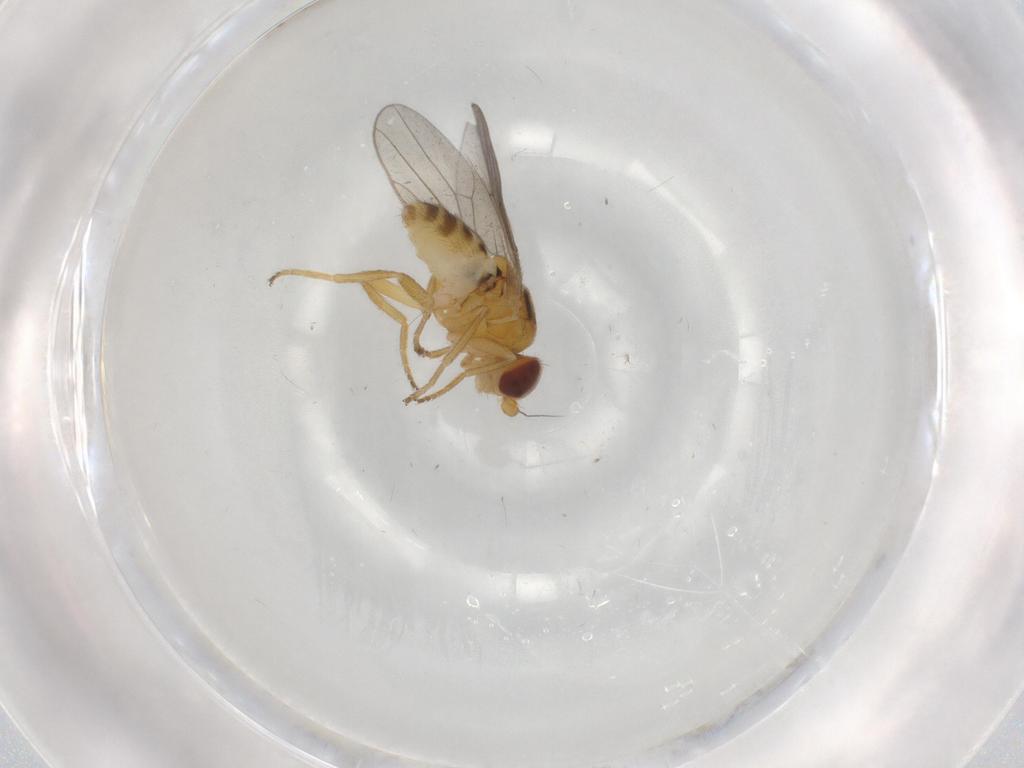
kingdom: Animalia
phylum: Arthropoda
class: Insecta
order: Diptera
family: Chloropidae
